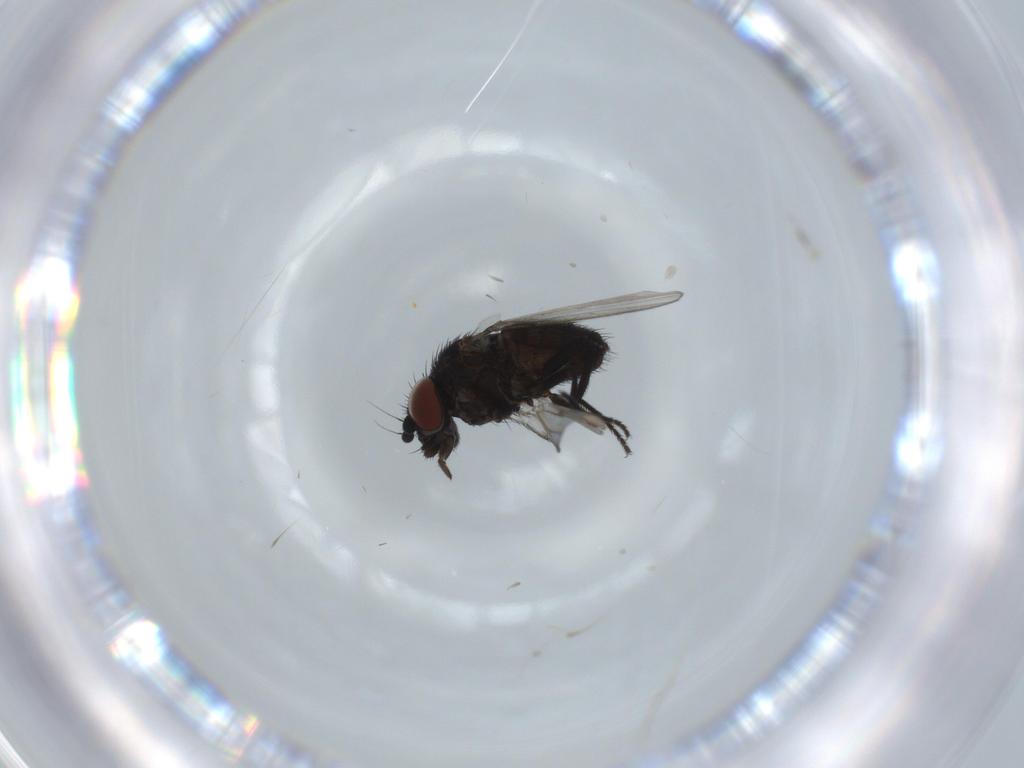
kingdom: Animalia
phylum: Arthropoda
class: Insecta
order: Diptera
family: Milichiidae
